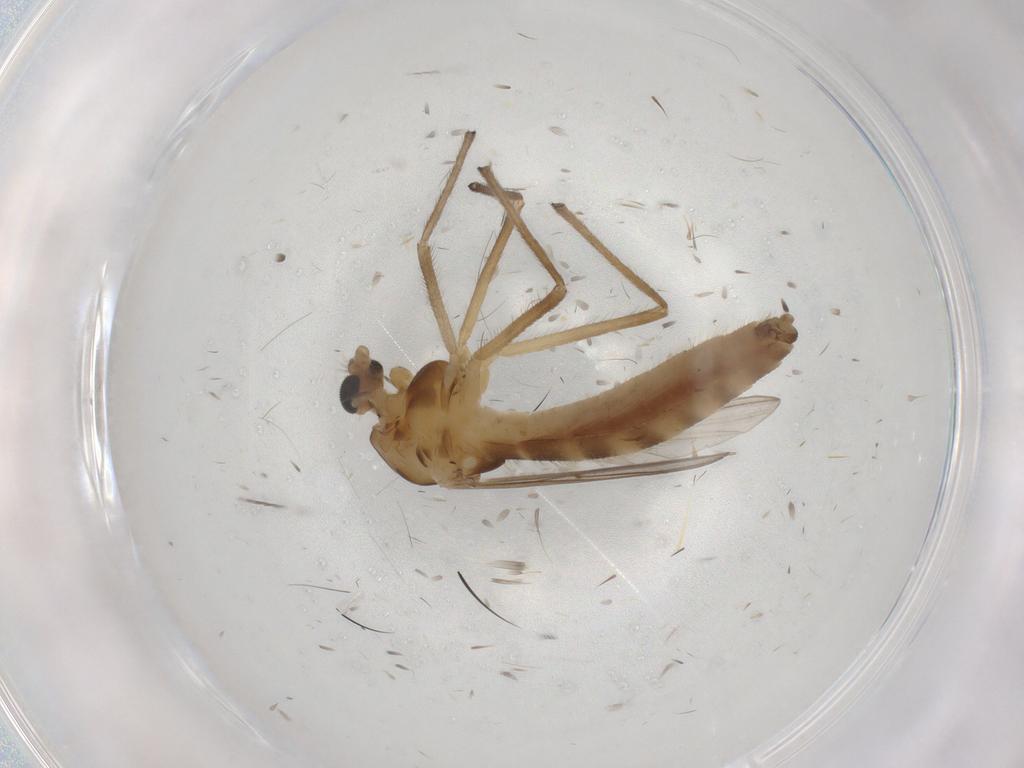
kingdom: Animalia
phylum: Arthropoda
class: Insecta
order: Diptera
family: Chironomidae
